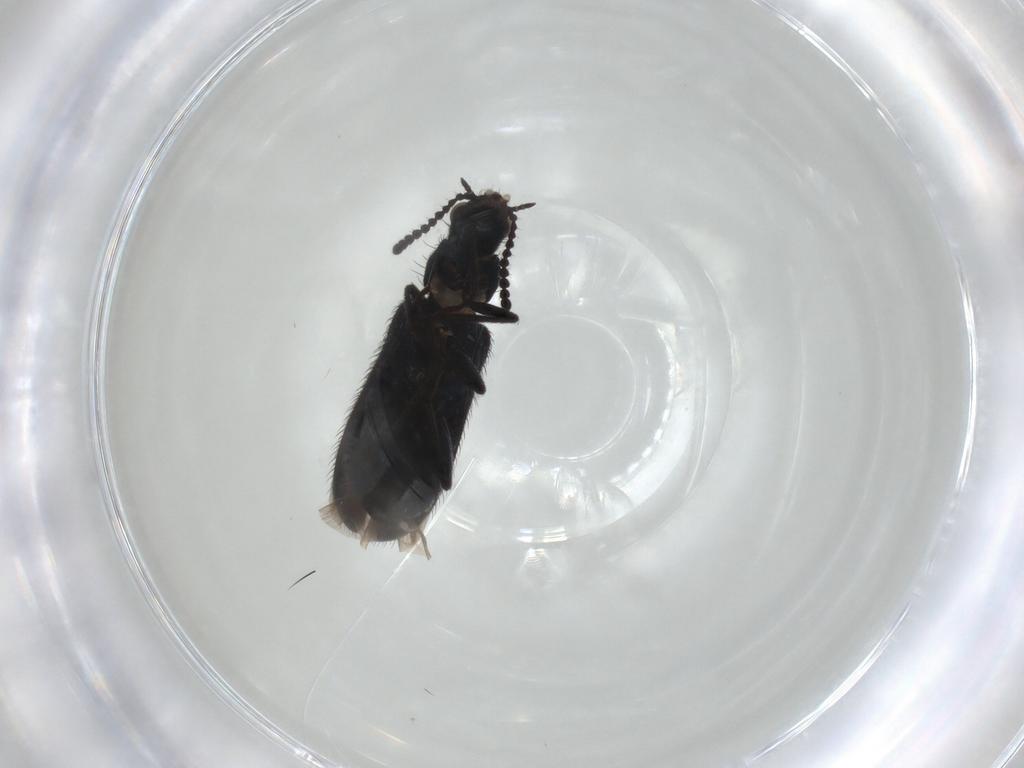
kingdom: Animalia
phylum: Arthropoda
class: Insecta
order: Coleoptera
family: Melyridae
